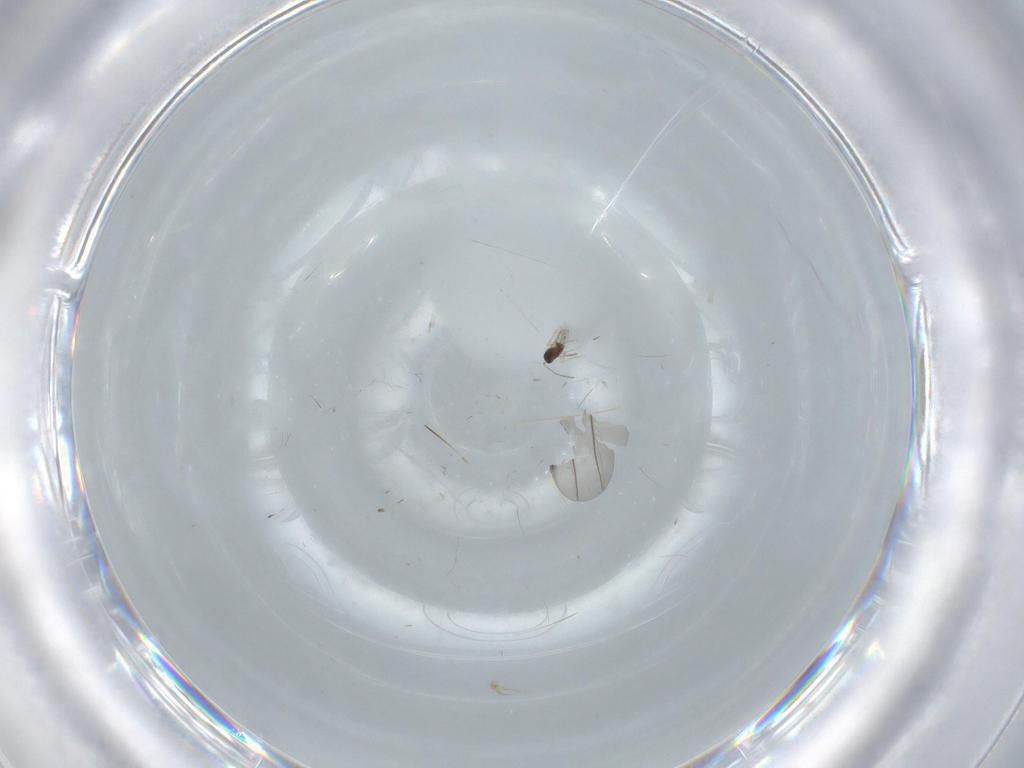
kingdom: Animalia
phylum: Arthropoda
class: Insecta
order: Hymenoptera
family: Formicidae
